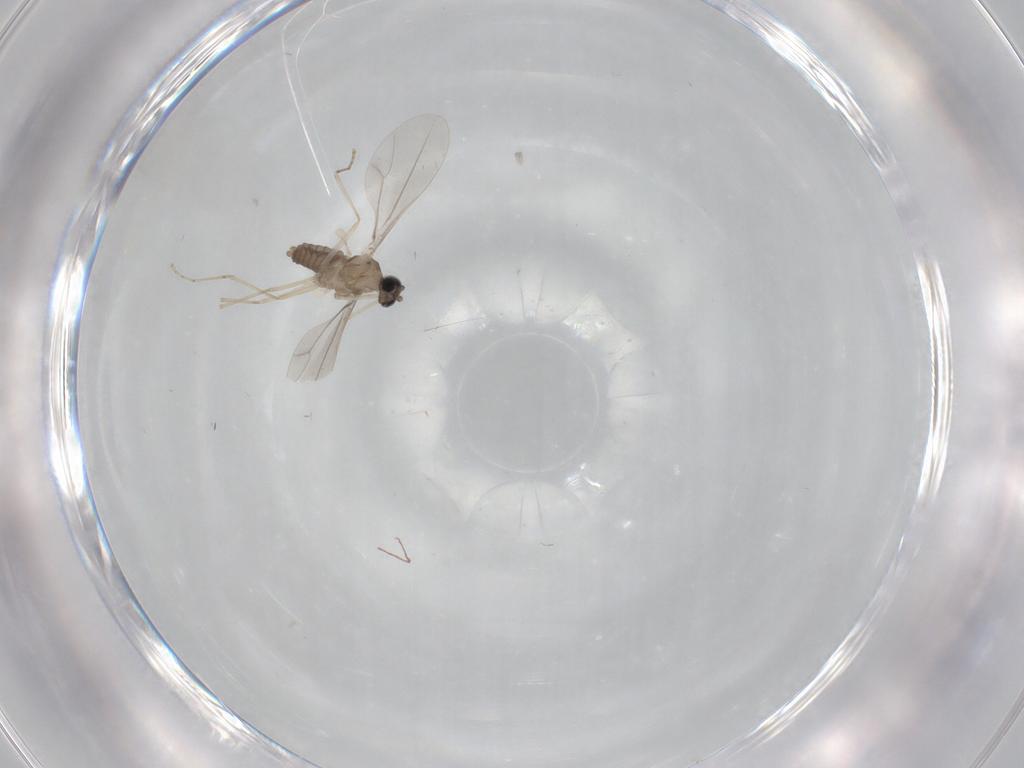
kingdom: Animalia
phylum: Arthropoda
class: Insecta
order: Diptera
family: Cecidomyiidae
